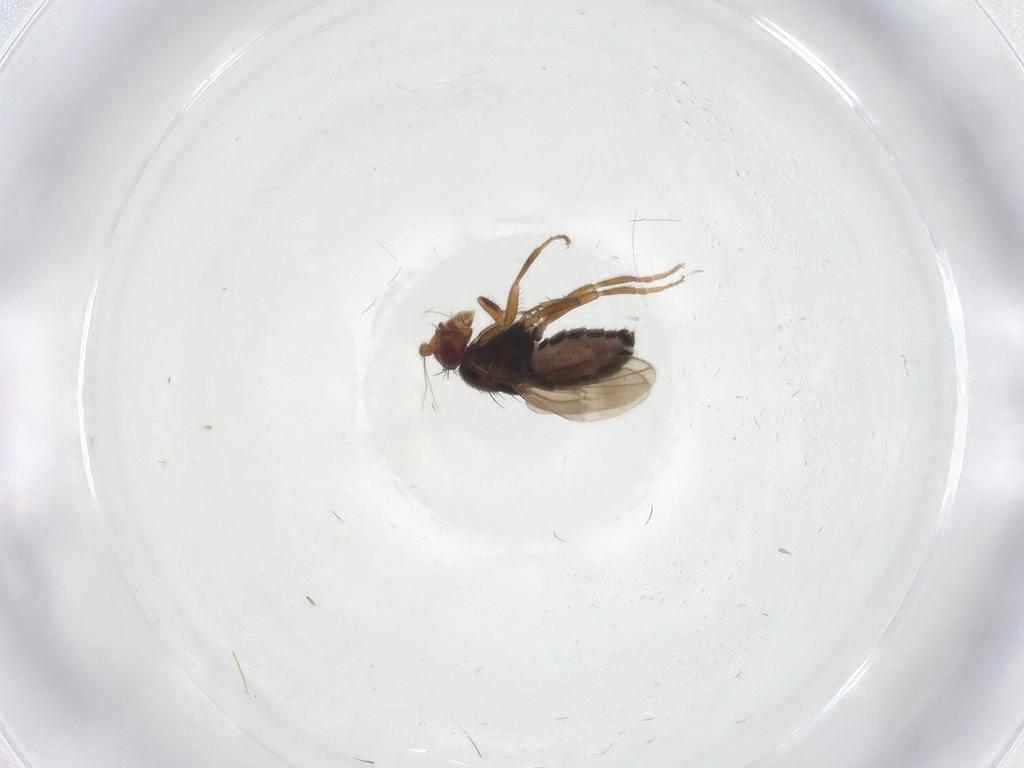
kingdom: Animalia
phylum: Arthropoda
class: Insecta
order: Diptera
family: Sphaeroceridae
